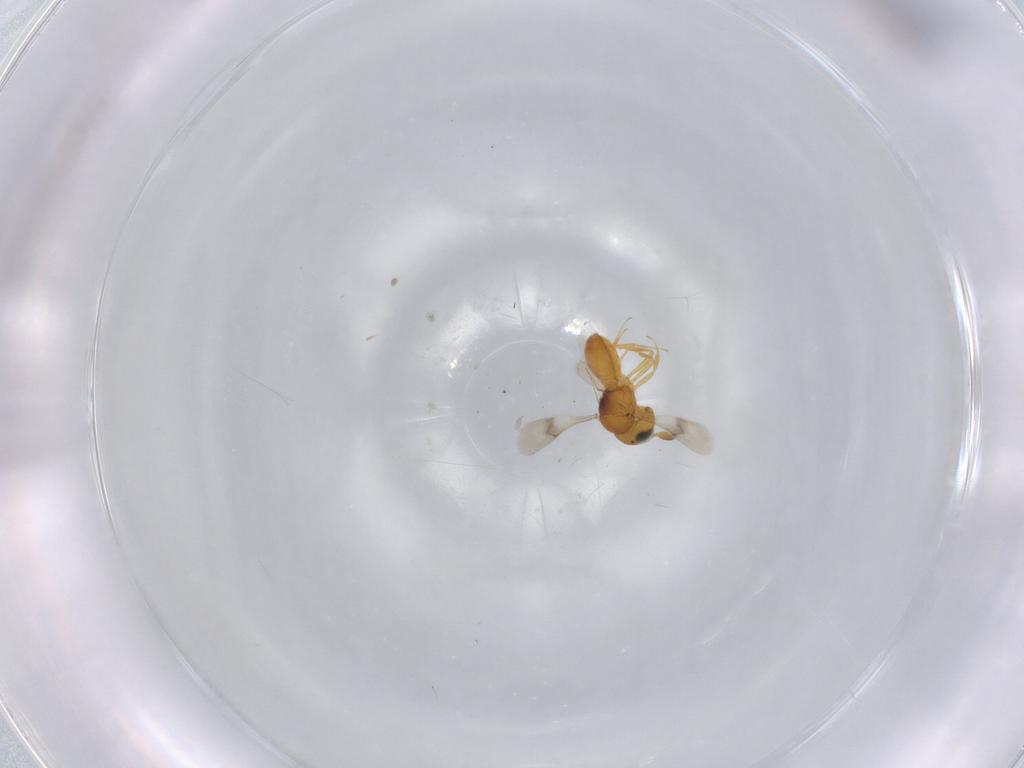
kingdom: Animalia
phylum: Arthropoda
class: Insecta
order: Hymenoptera
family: Scelionidae
